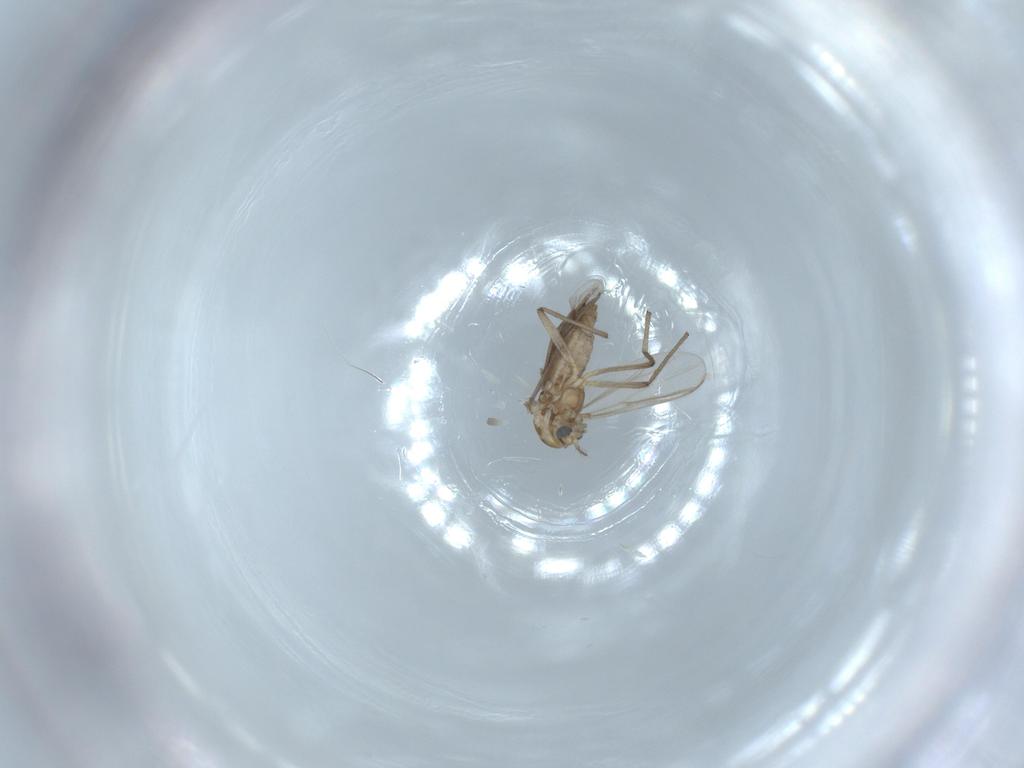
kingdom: Animalia
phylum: Arthropoda
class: Insecta
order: Diptera
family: Chironomidae
